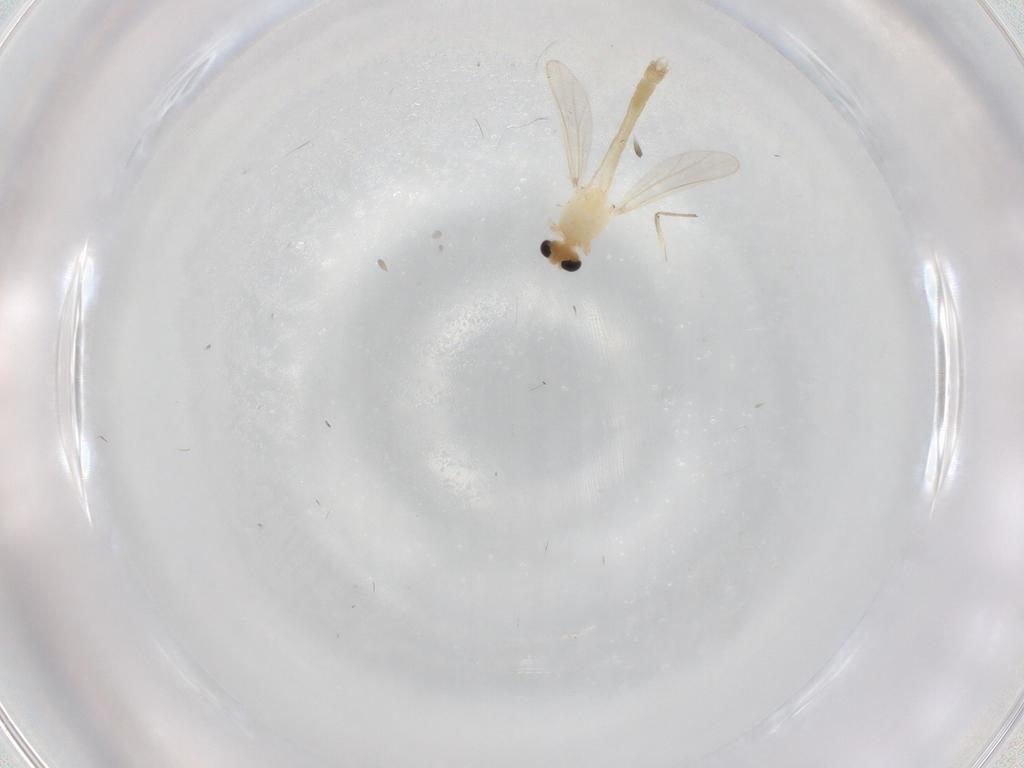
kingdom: Animalia
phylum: Arthropoda
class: Insecta
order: Diptera
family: Chironomidae
